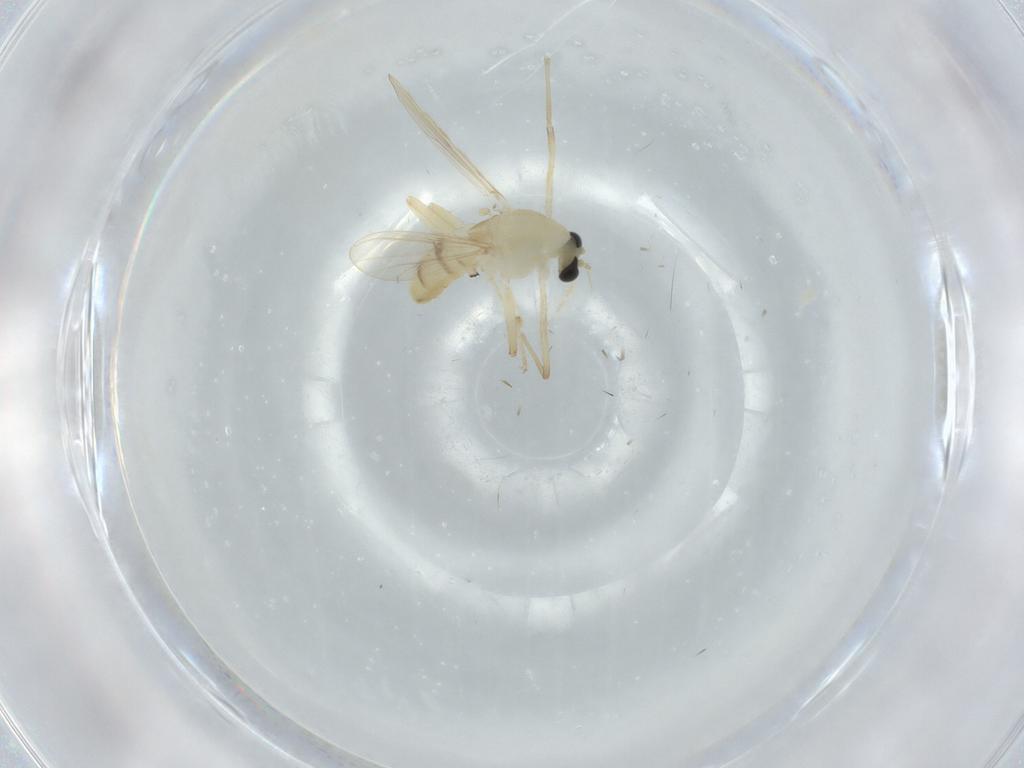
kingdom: Animalia
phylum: Arthropoda
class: Insecta
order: Diptera
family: Chironomidae
